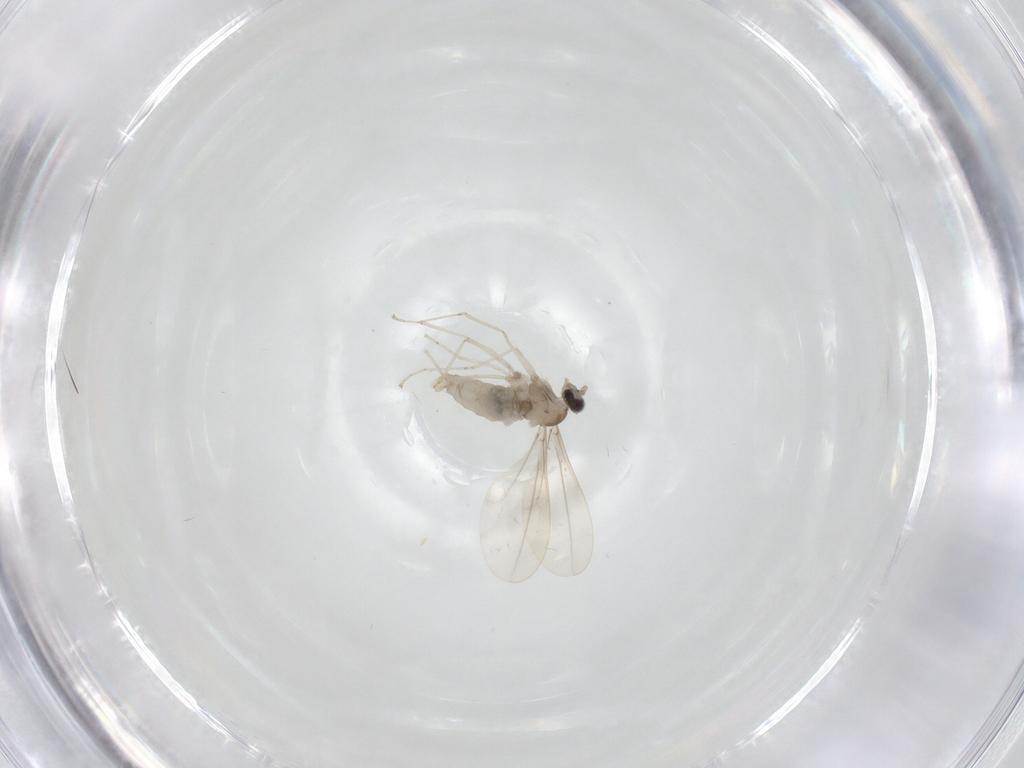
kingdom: Animalia
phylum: Arthropoda
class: Insecta
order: Diptera
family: Cecidomyiidae
